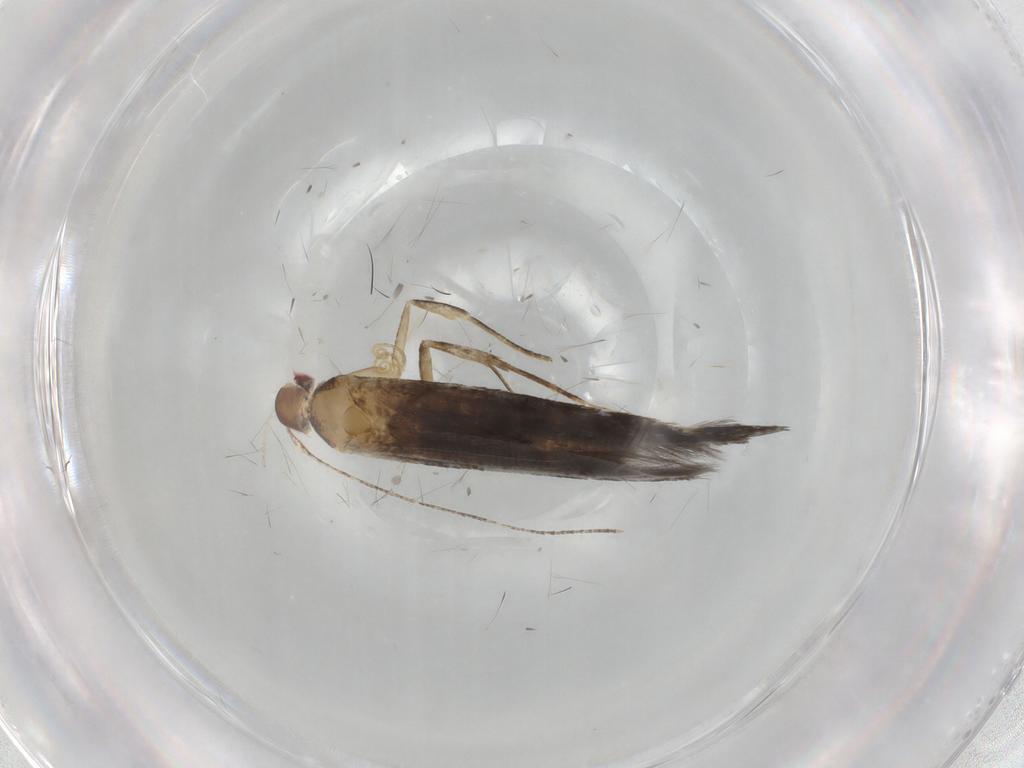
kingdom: Animalia
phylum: Arthropoda
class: Insecta
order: Lepidoptera
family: Cosmopterigidae
